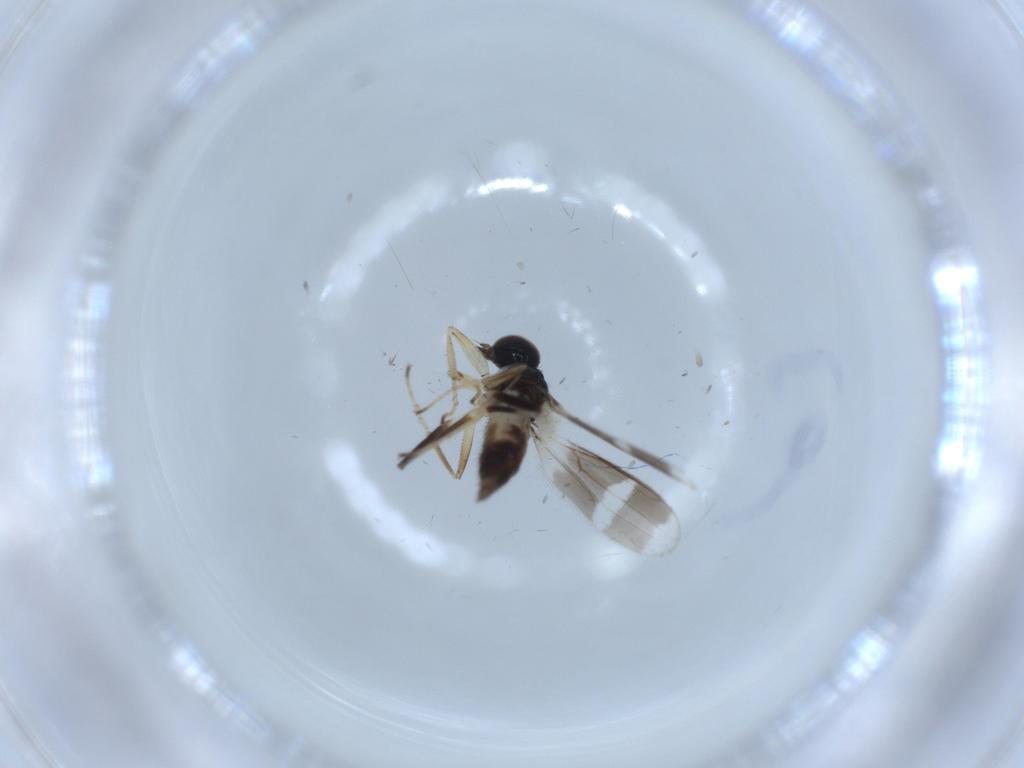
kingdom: Animalia
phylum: Arthropoda
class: Insecta
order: Diptera
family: Hybotidae
